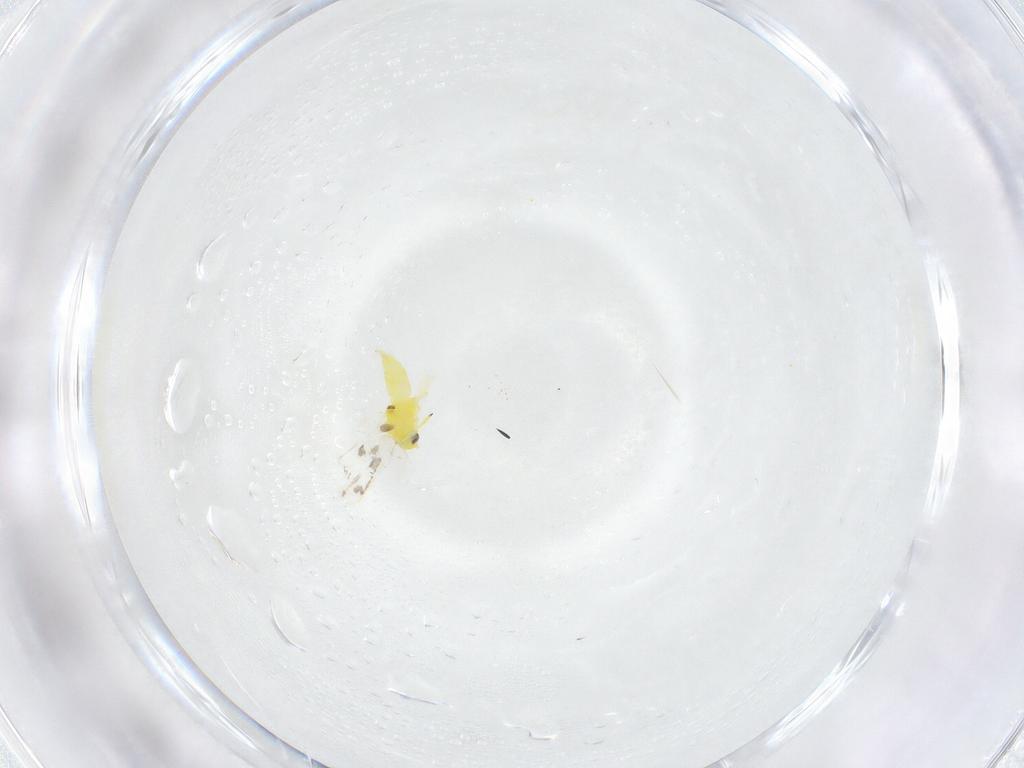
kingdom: Animalia
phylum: Arthropoda
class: Insecta
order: Hemiptera
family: Aleyrodidae
